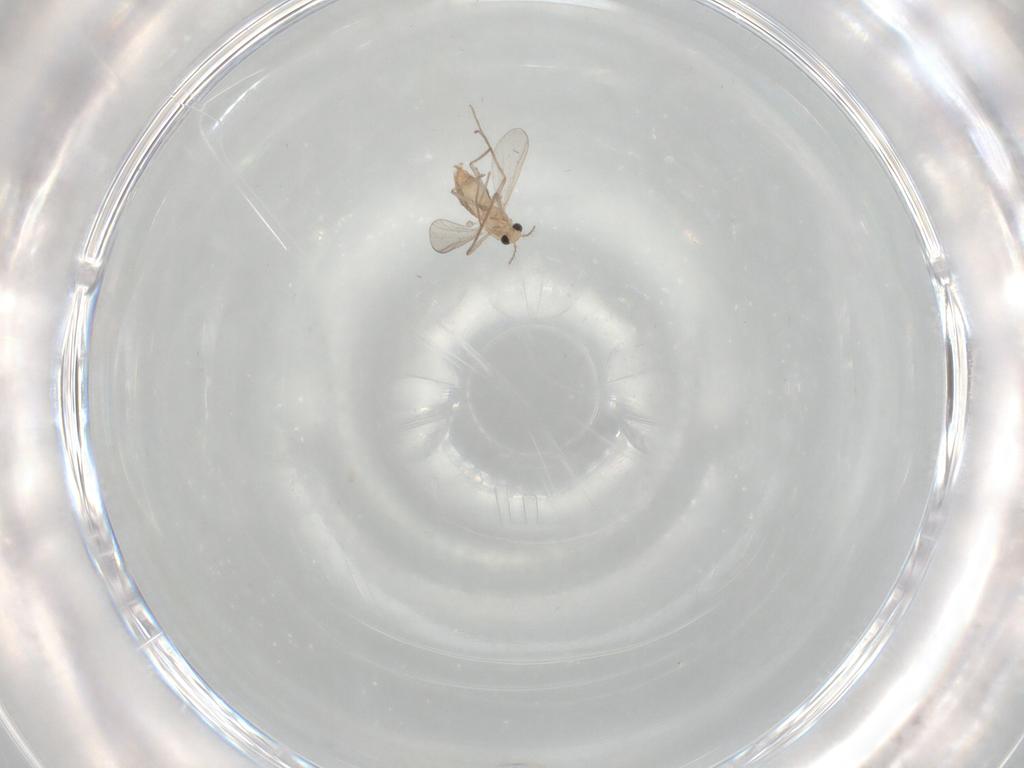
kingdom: Animalia
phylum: Arthropoda
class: Insecta
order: Diptera
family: Chironomidae
